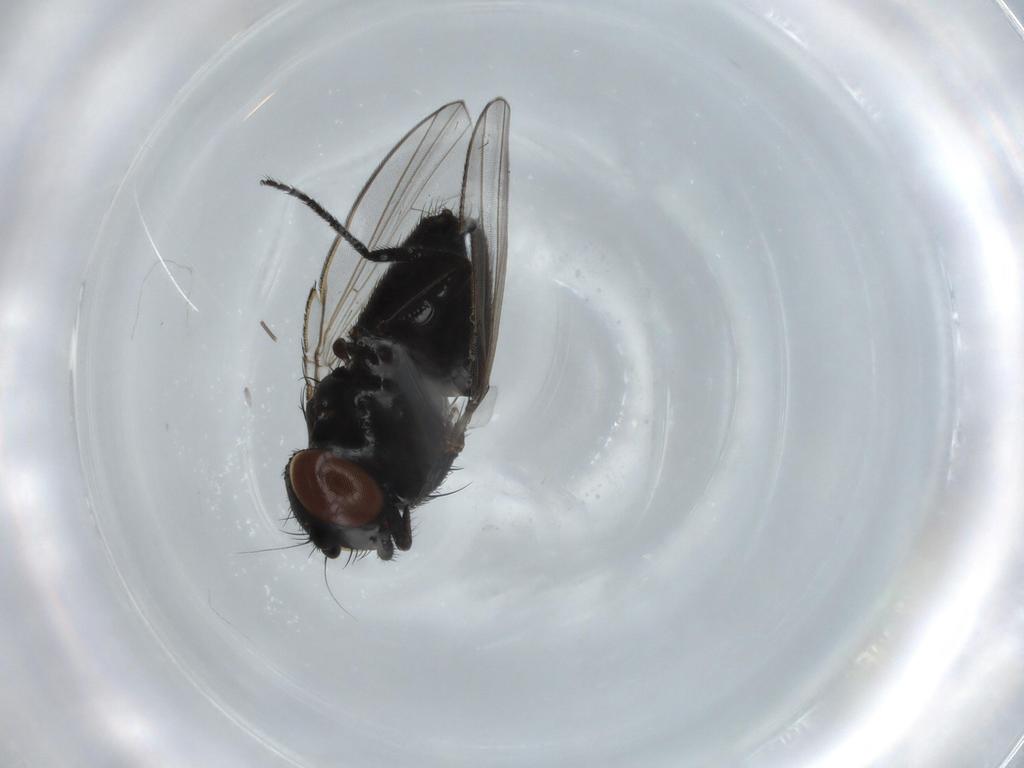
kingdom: Animalia
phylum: Arthropoda
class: Insecta
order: Diptera
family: Milichiidae
